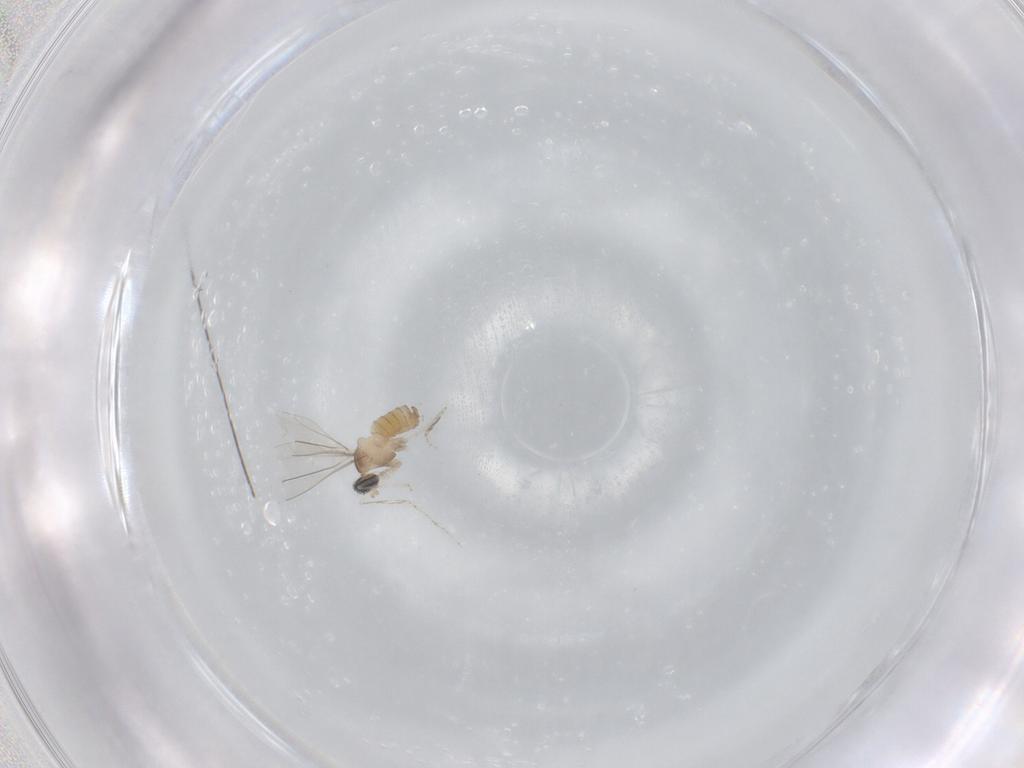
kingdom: Animalia
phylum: Arthropoda
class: Insecta
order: Diptera
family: Cecidomyiidae
